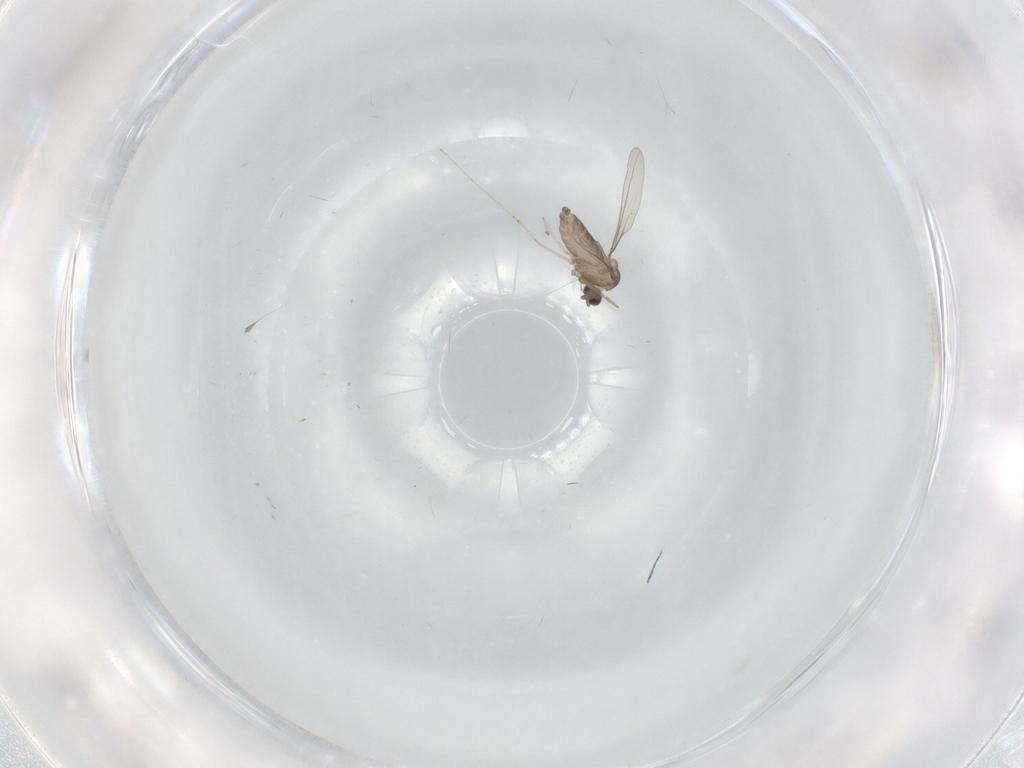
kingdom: Animalia
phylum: Arthropoda
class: Insecta
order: Diptera
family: Cecidomyiidae
